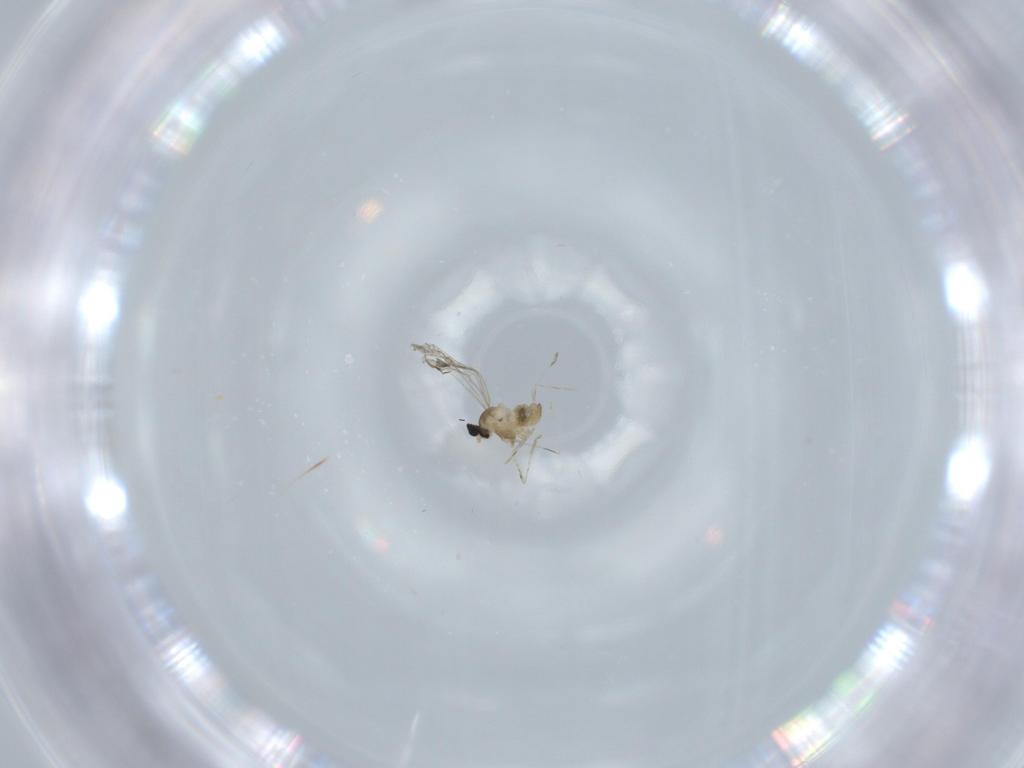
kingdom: Animalia
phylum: Arthropoda
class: Insecta
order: Diptera
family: Cecidomyiidae
